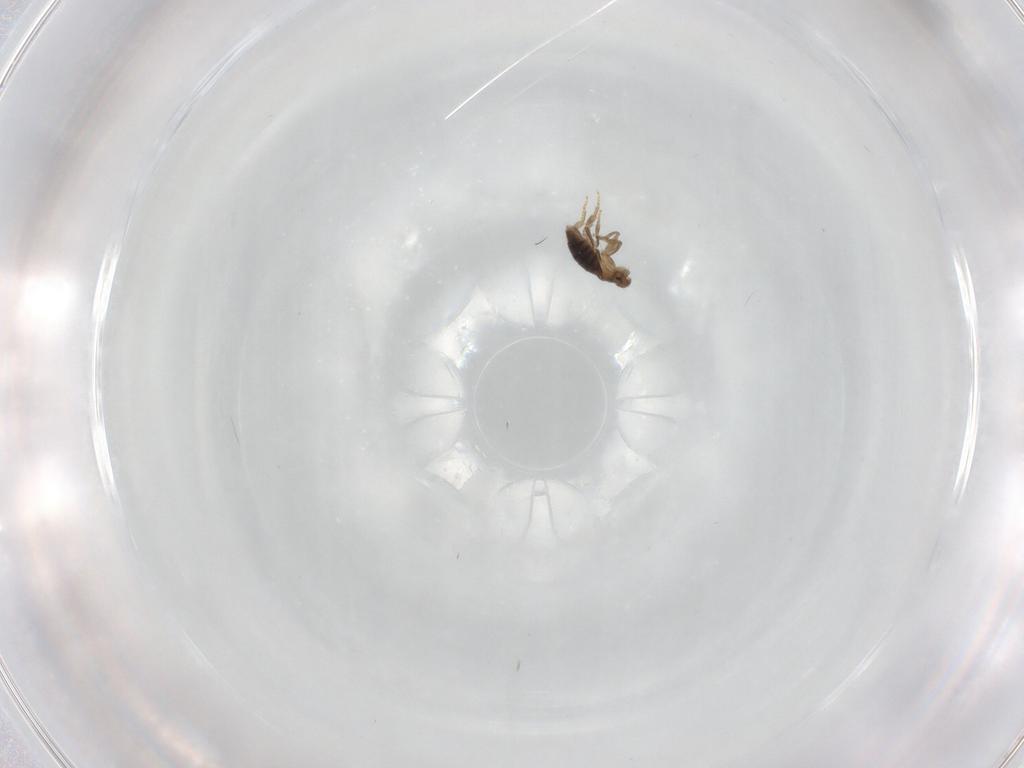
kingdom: Animalia
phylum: Arthropoda
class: Insecta
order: Diptera
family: Cecidomyiidae
